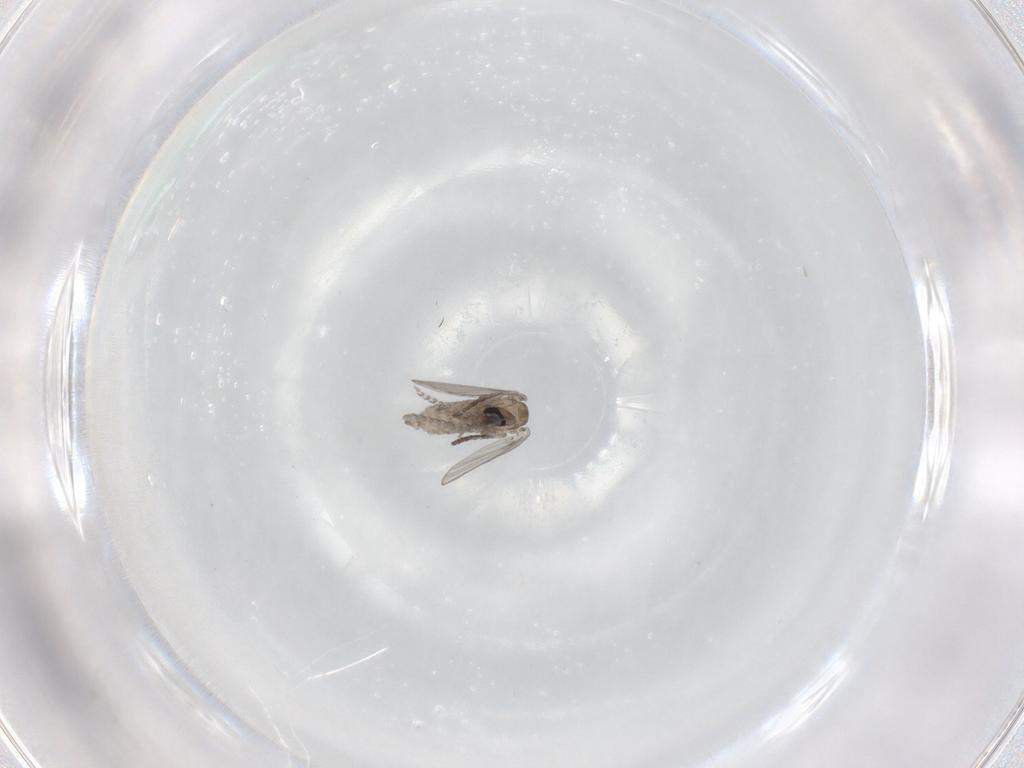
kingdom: Animalia
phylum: Arthropoda
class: Insecta
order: Diptera
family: Psychodidae
